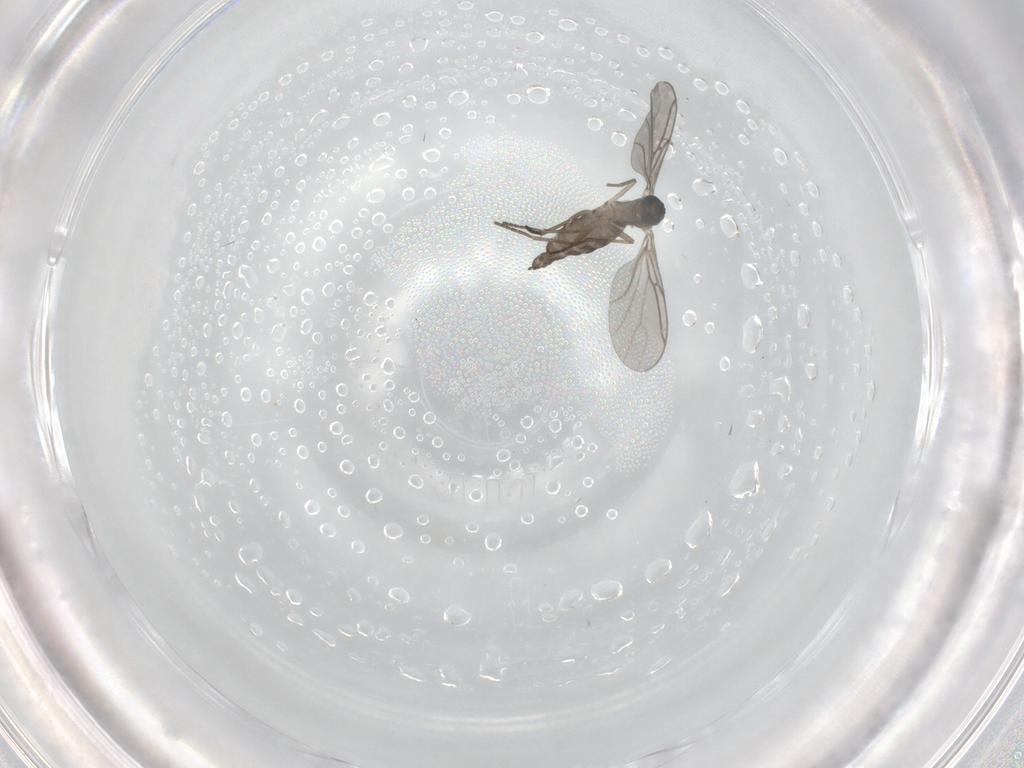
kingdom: Animalia
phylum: Arthropoda
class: Insecta
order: Diptera
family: Sciaridae
